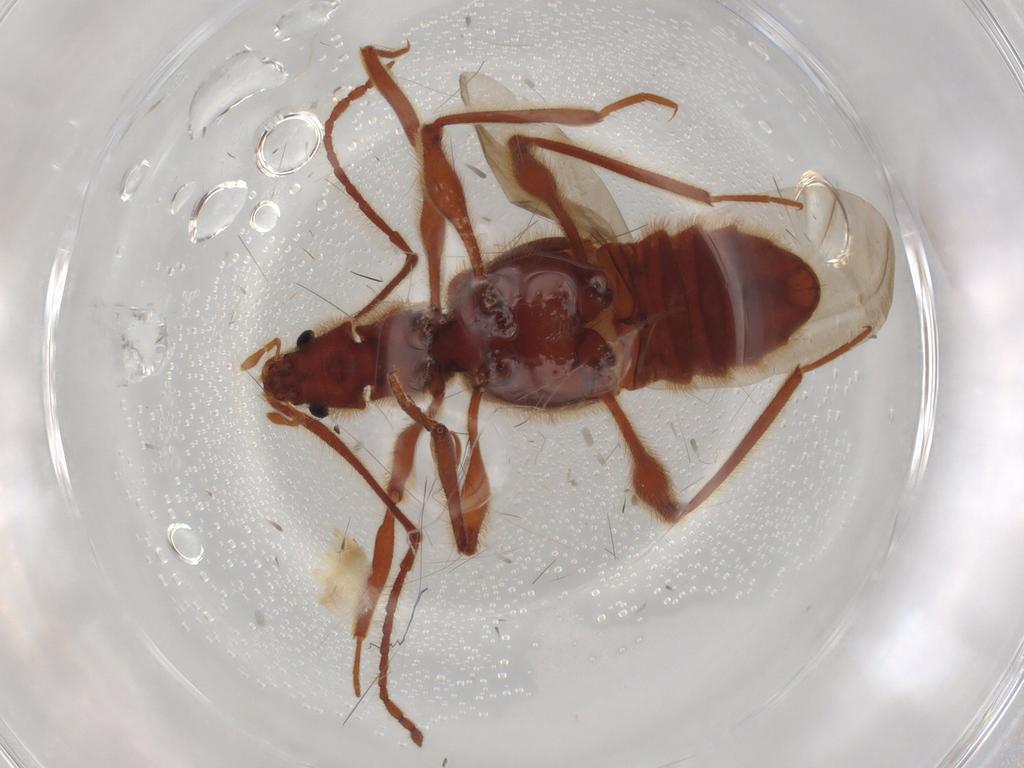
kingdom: Animalia
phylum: Arthropoda
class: Insecta
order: Coleoptera
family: Staphylinidae
